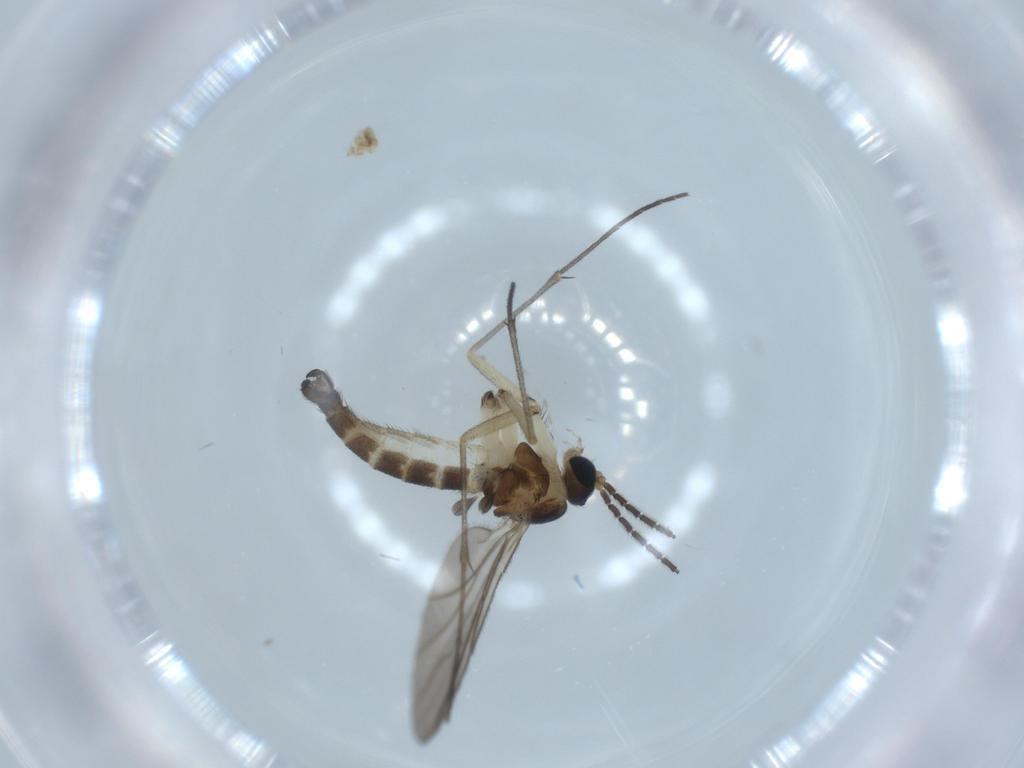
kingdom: Animalia
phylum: Arthropoda
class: Insecta
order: Diptera
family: Sciaridae
